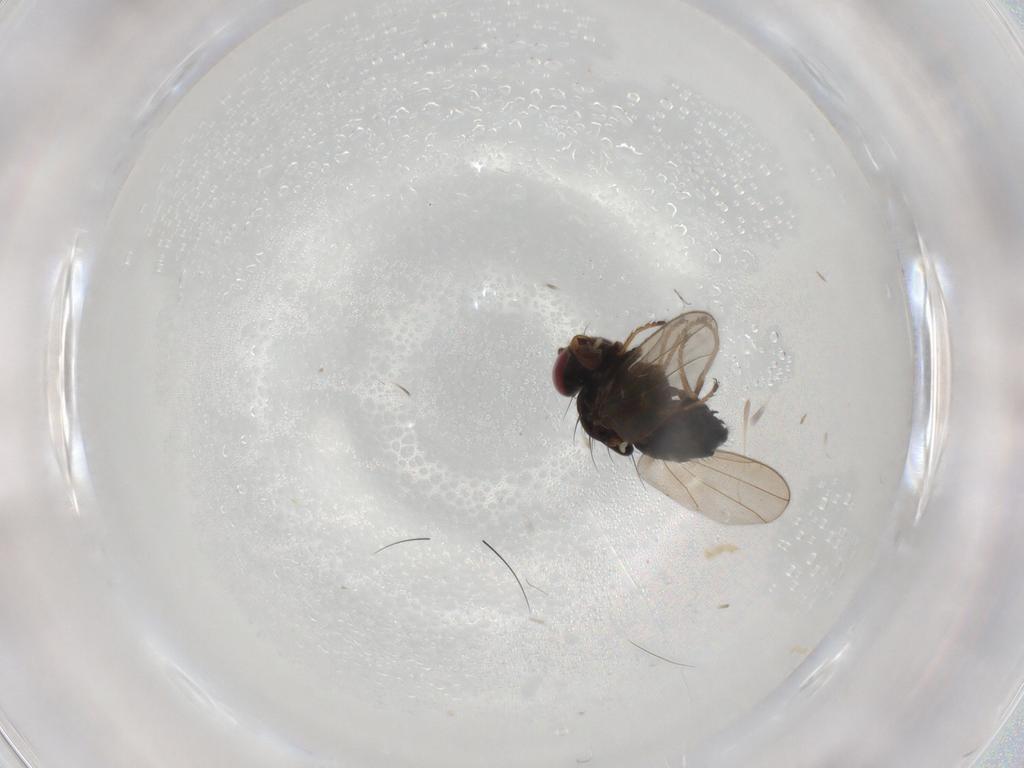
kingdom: Animalia
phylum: Arthropoda
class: Insecta
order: Diptera
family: Ephydridae
